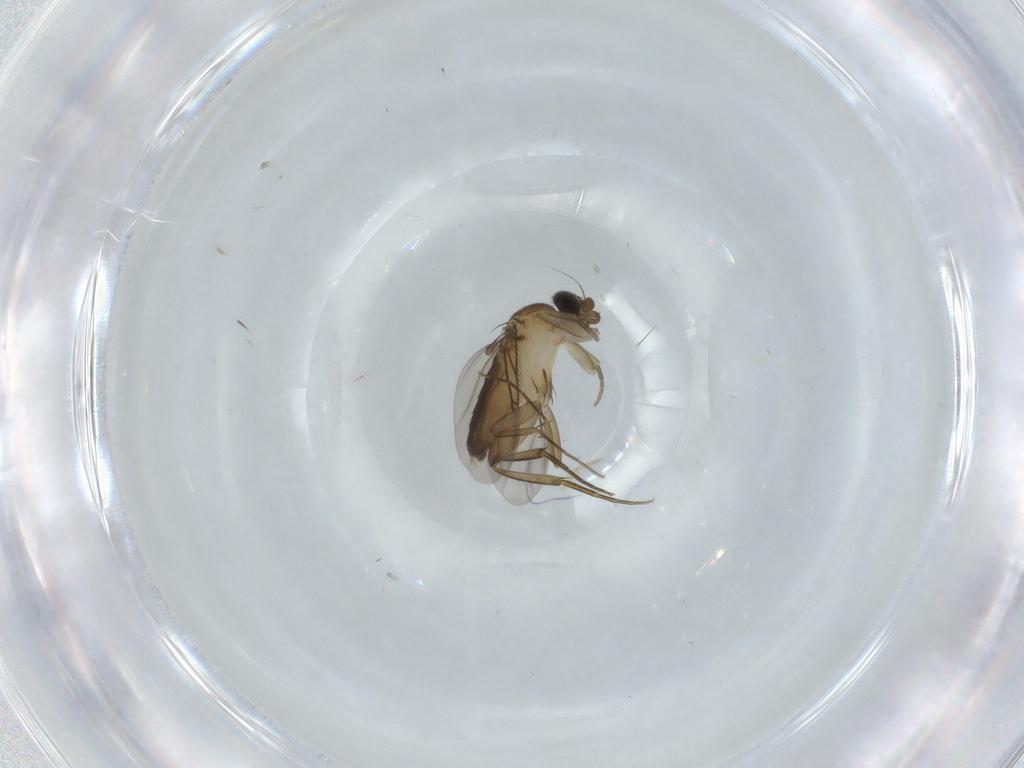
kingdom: Animalia
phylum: Arthropoda
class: Insecta
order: Diptera
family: Phoridae
